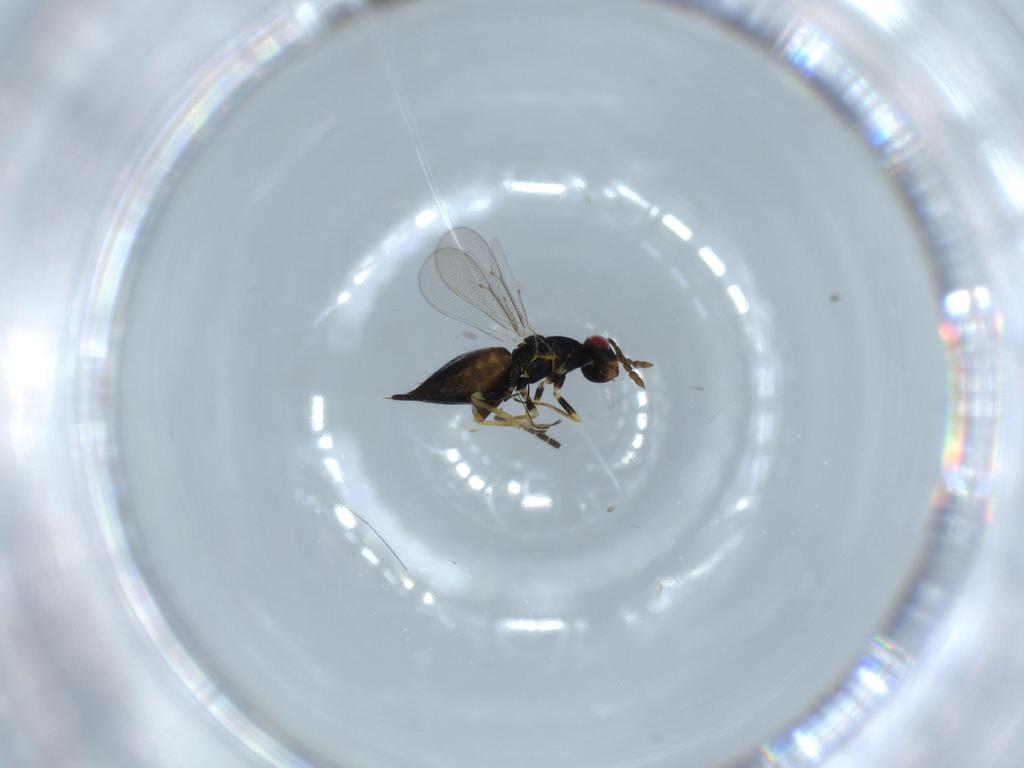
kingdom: Animalia
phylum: Arthropoda
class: Insecta
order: Hymenoptera
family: Eulophidae
